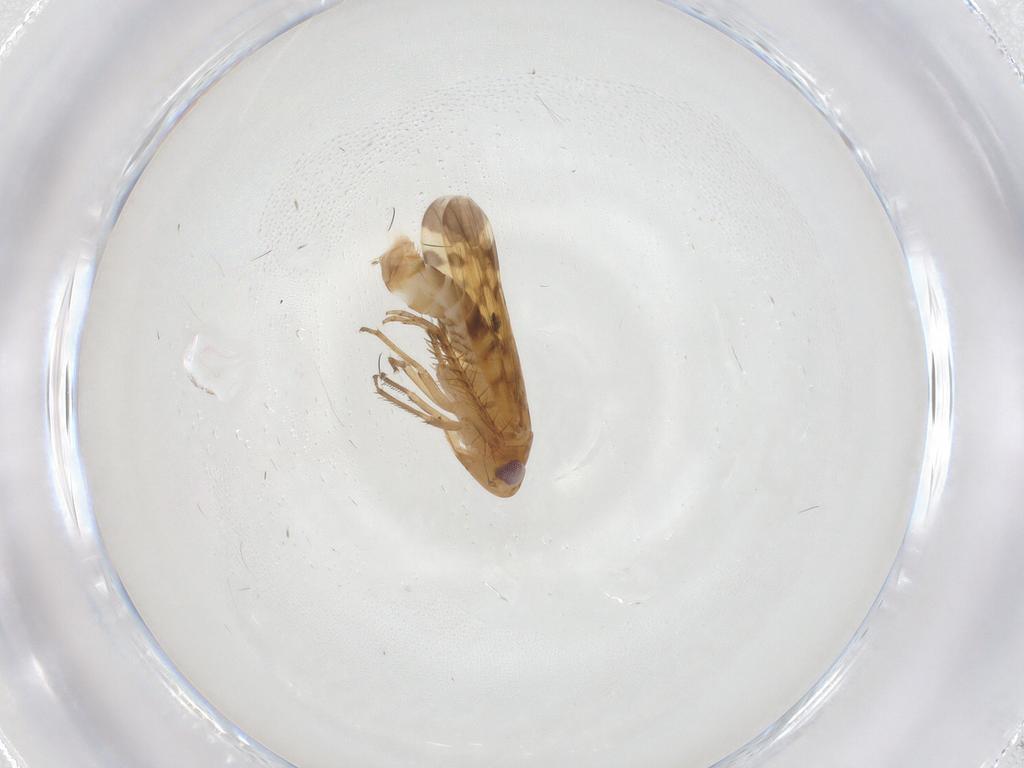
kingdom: Animalia
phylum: Arthropoda
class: Insecta
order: Hemiptera
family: Cicadellidae
